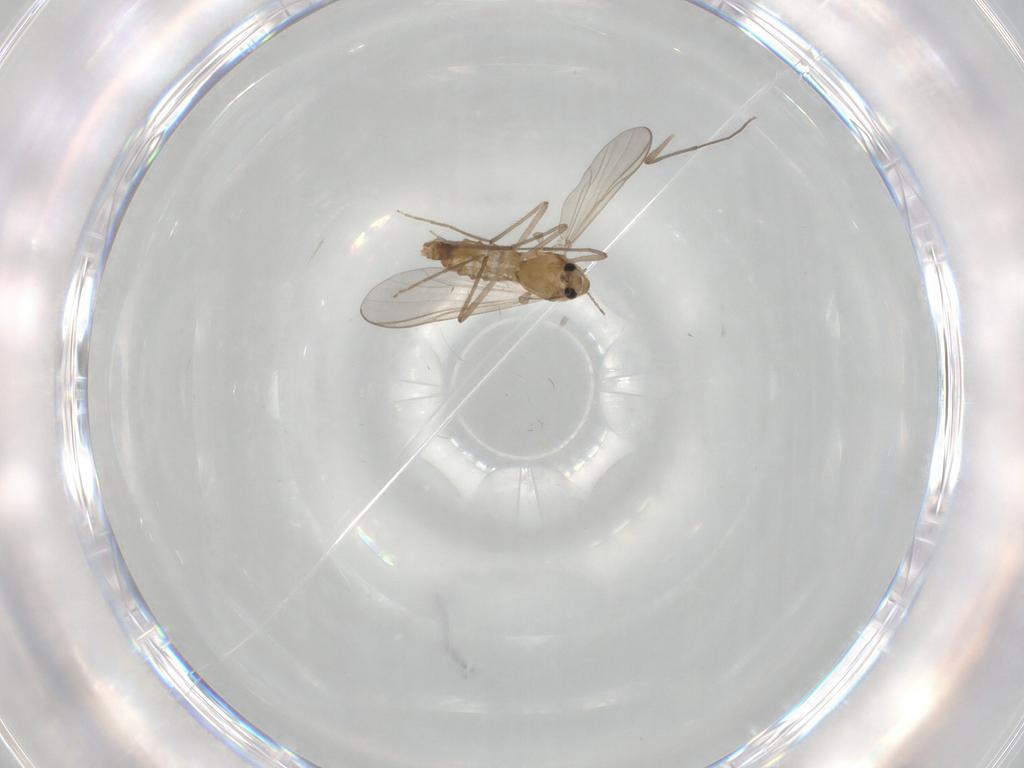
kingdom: Animalia
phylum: Arthropoda
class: Insecta
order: Diptera
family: Chironomidae
